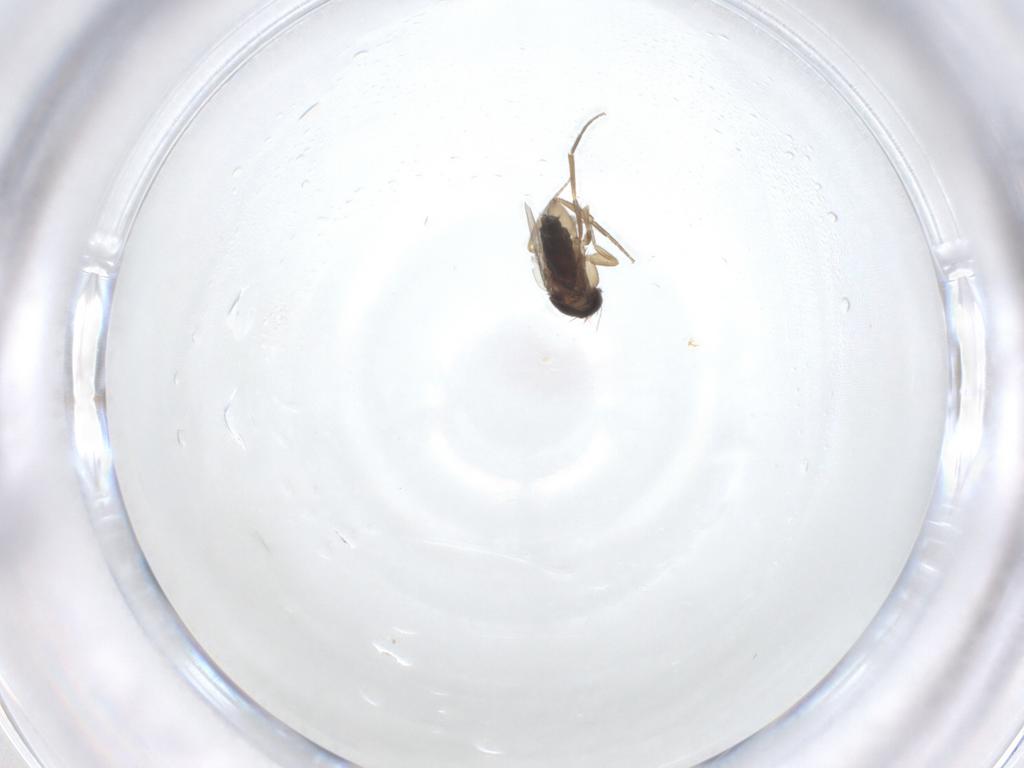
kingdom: Animalia
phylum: Arthropoda
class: Insecta
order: Diptera
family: Phoridae
